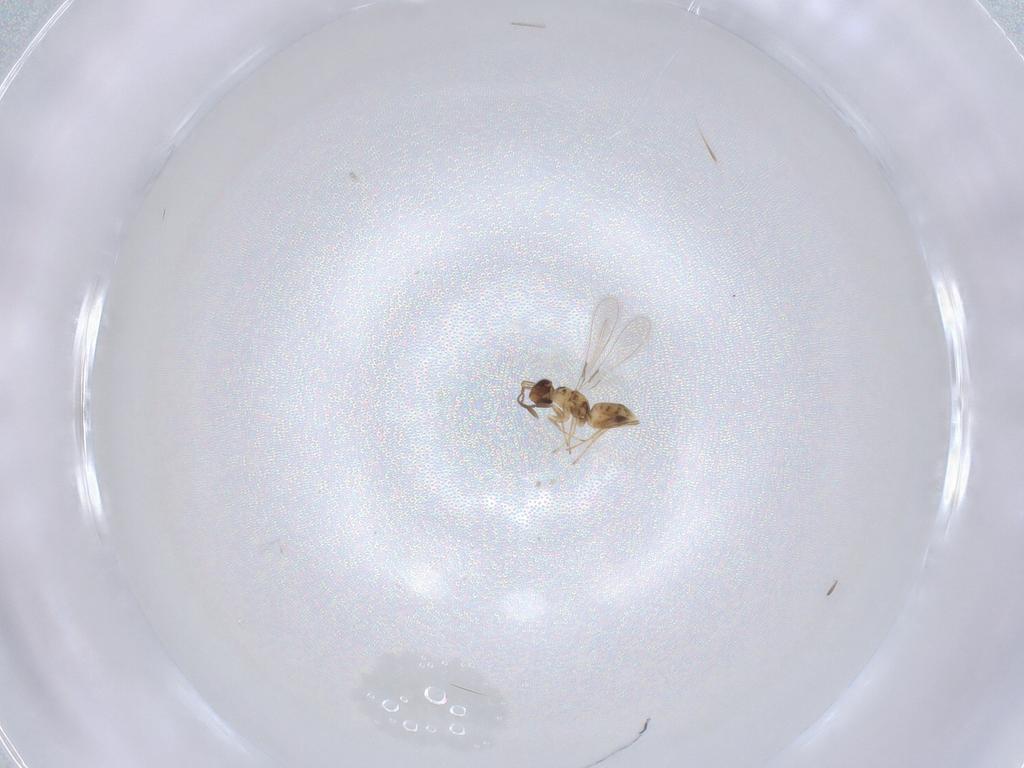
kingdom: Animalia
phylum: Arthropoda
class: Insecta
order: Hymenoptera
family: Mymaridae
